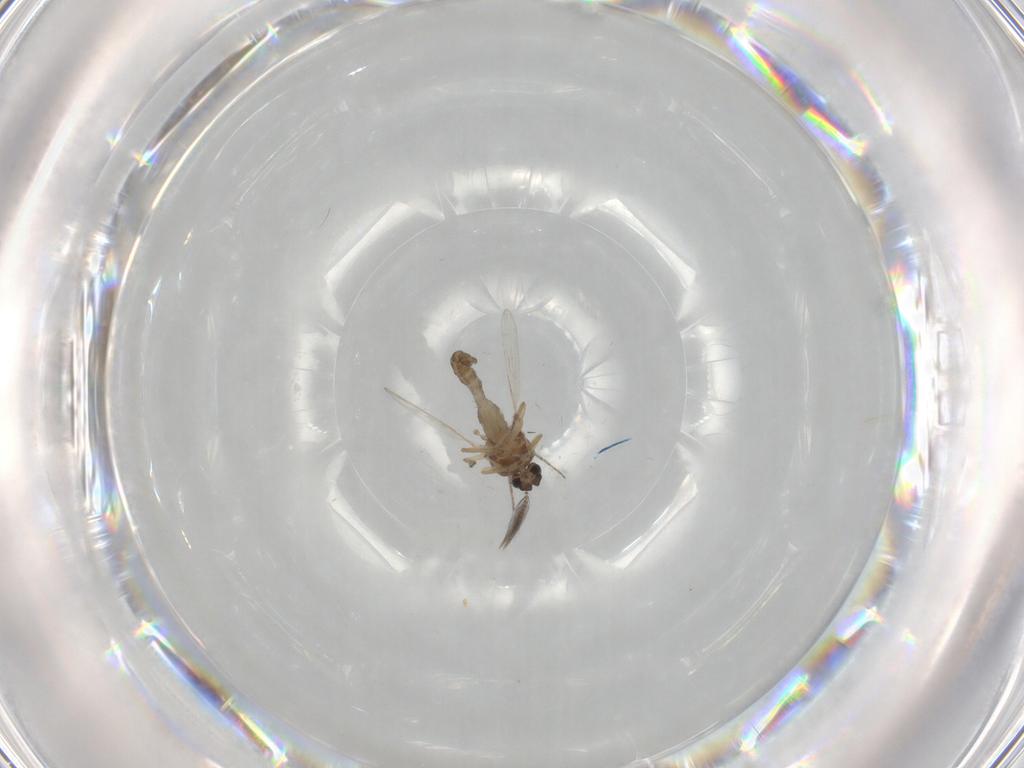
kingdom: Animalia
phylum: Arthropoda
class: Insecta
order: Diptera
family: Ceratopogonidae
